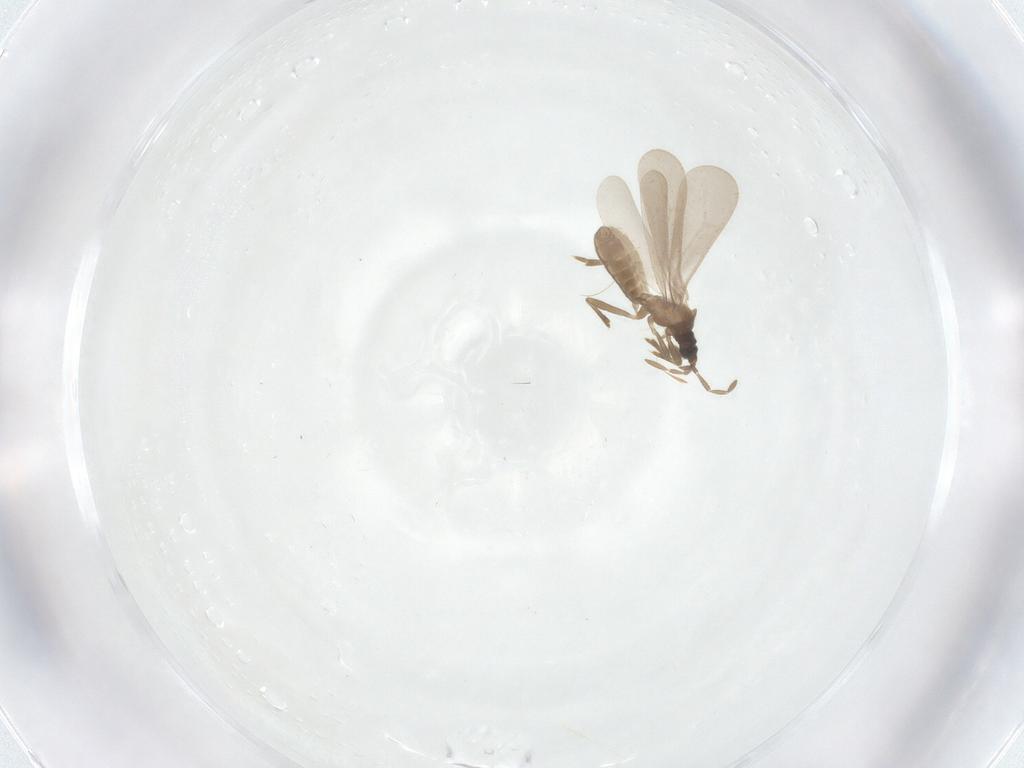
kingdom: Animalia
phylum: Arthropoda
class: Insecta
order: Hemiptera
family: Enicocephalidae
